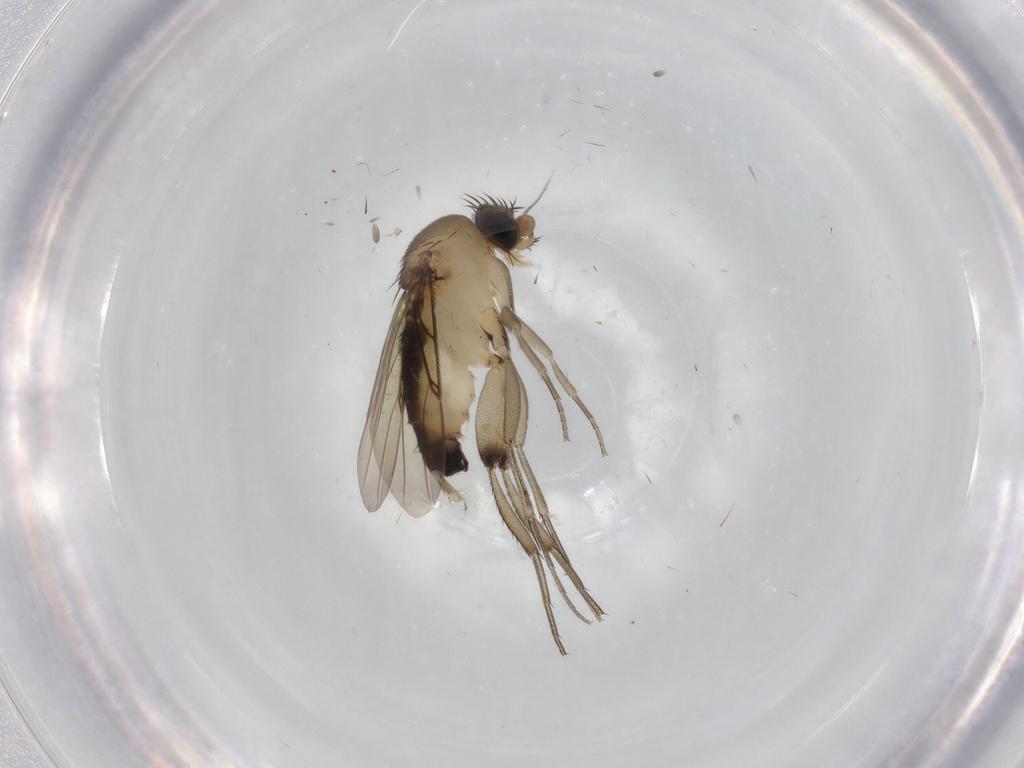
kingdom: Animalia
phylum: Arthropoda
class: Insecta
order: Diptera
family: Phoridae
